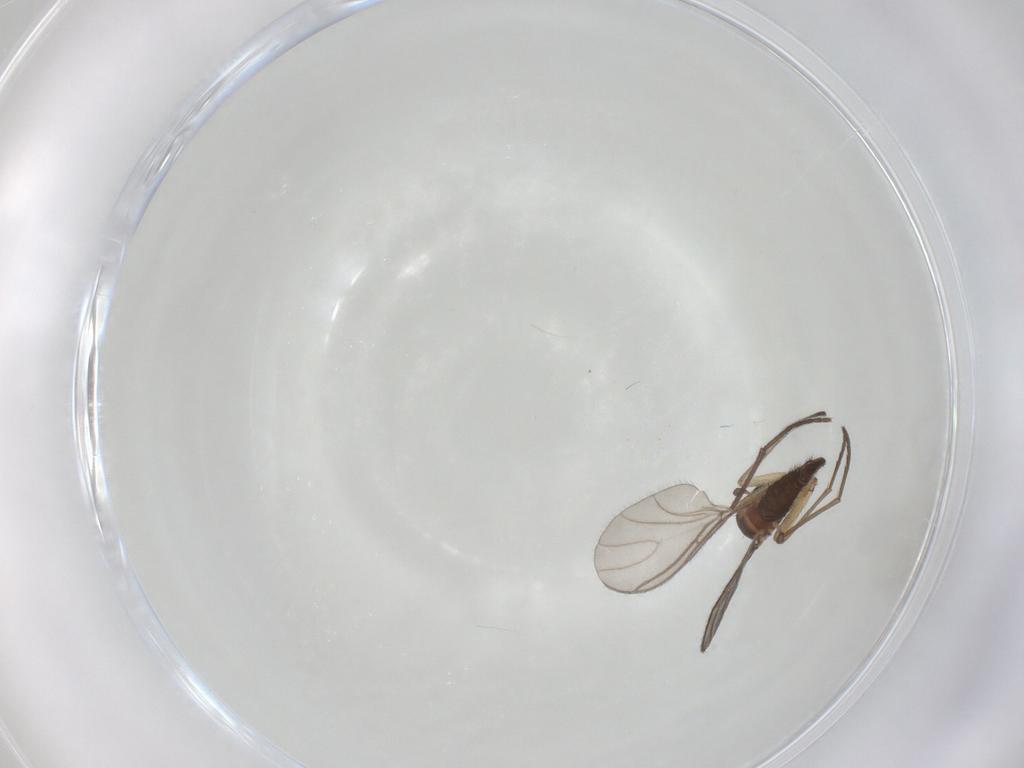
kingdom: Animalia
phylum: Arthropoda
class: Insecta
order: Diptera
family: Sciaridae
